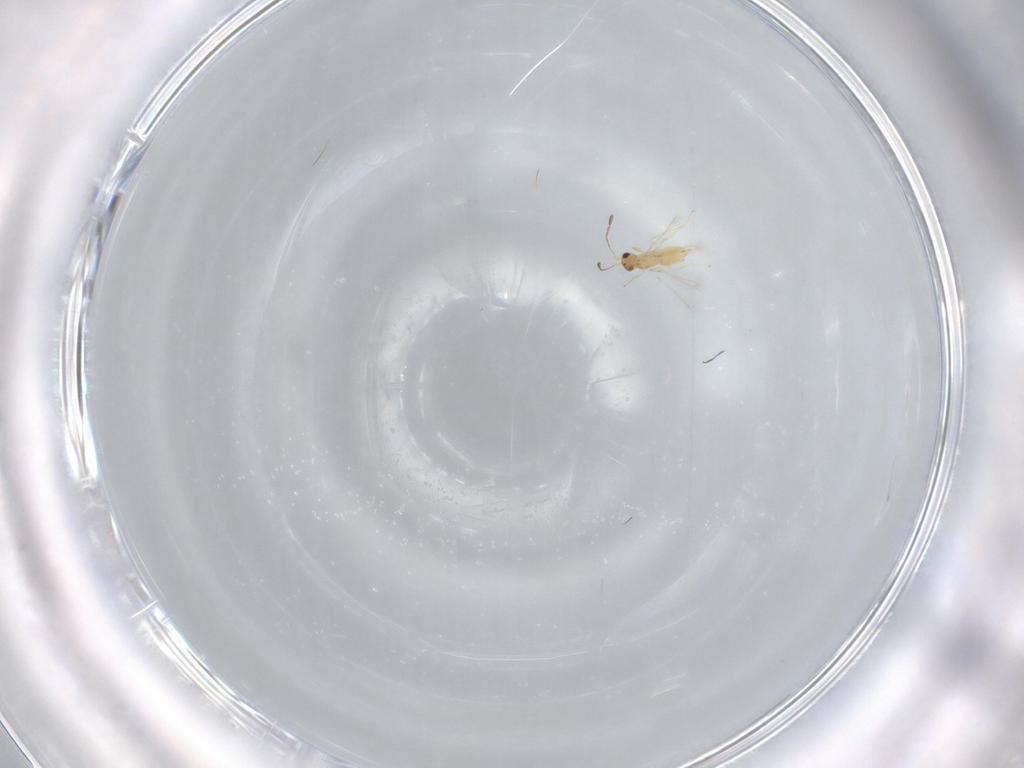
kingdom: Animalia
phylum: Arthropoda
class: Insecta
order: Hymenoptera
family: Mymaridae
